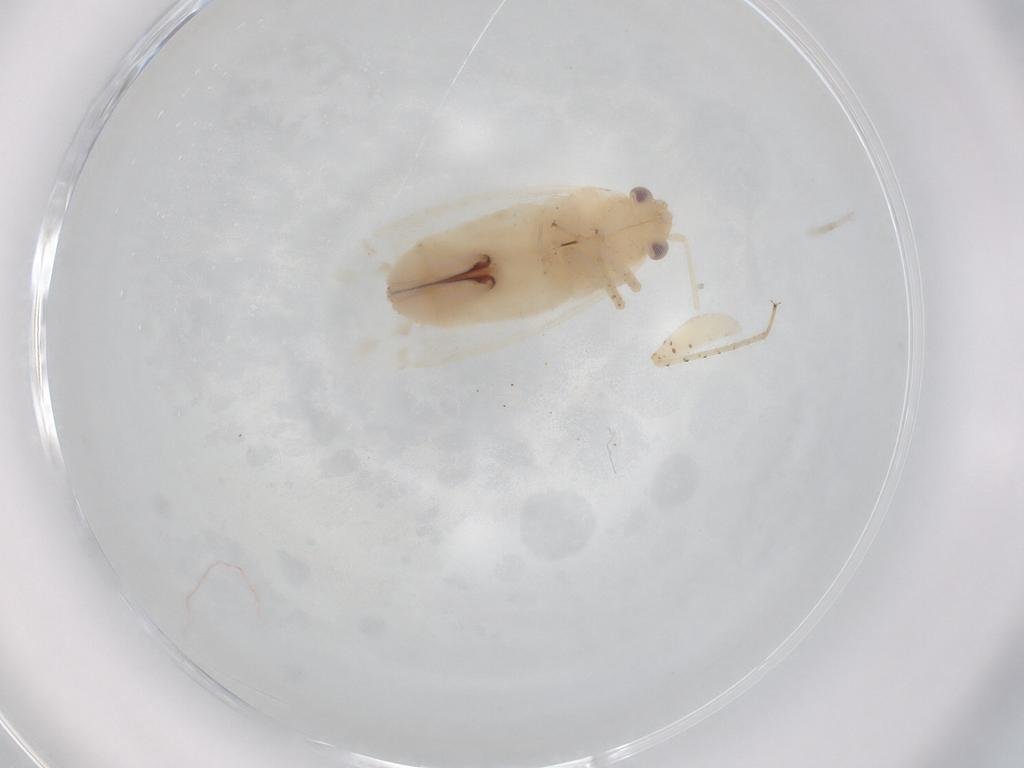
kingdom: Animalia
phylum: Arthropoda
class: Insecta
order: Hemiptera
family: Miridae
